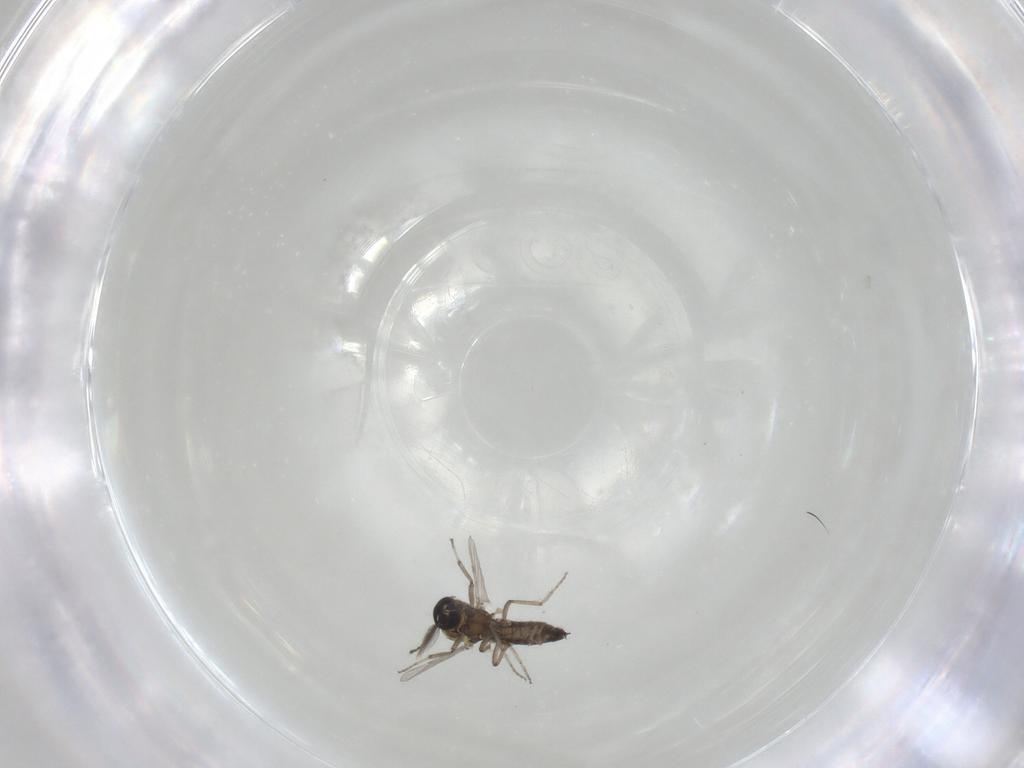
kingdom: Animalia
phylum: Arthropoda
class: Insecta
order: Diptera
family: Ceratopogonidae
